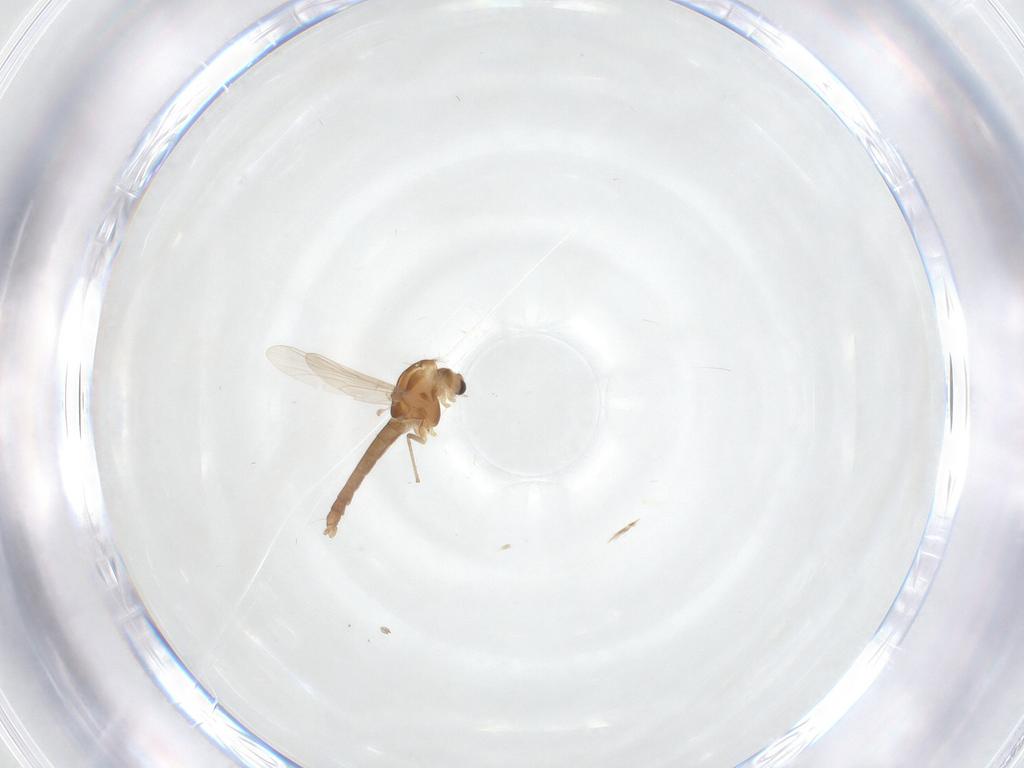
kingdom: Animalia
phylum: Arthropoda
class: Insecta
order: Diptera
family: Chironomidae
